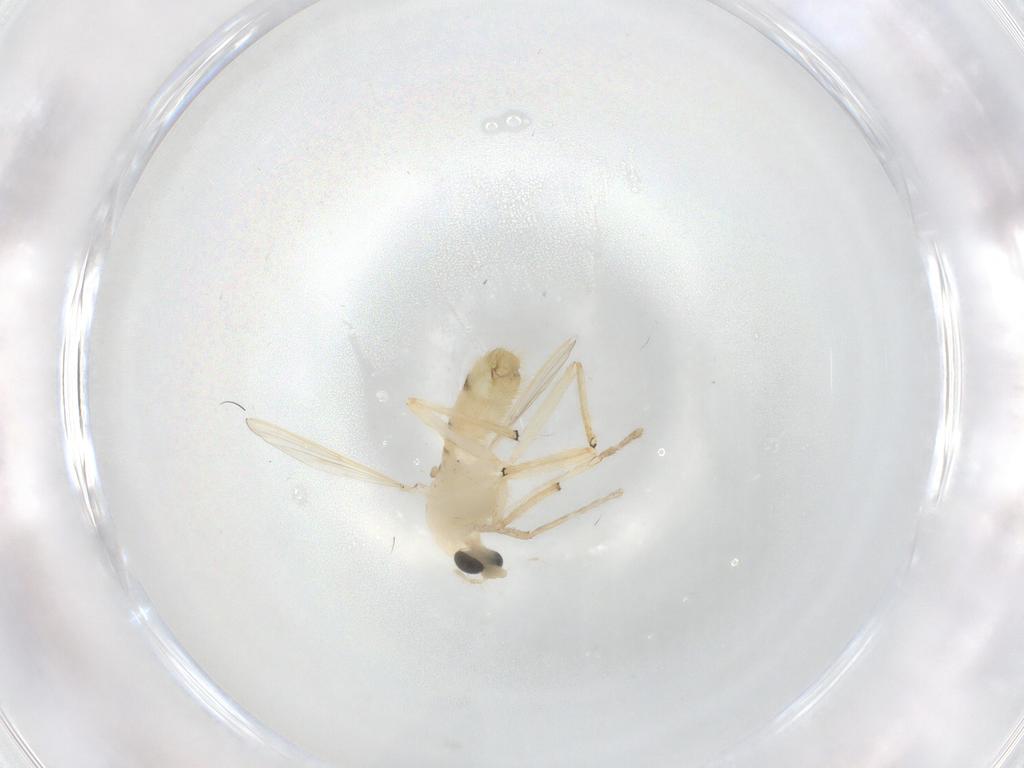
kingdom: Animalia
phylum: Arthropoda
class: Insecta
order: Diptera
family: Chironomidae
